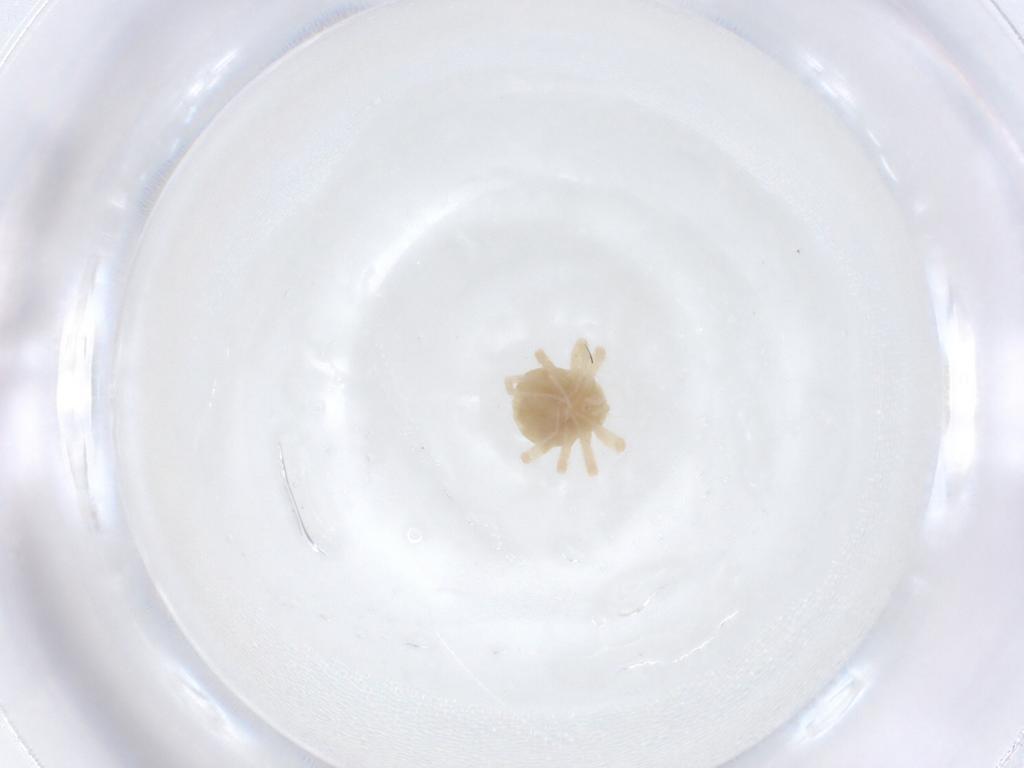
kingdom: Animalia
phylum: Arthropoda
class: Arachnida
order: Trombidiformes
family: Anystidae
